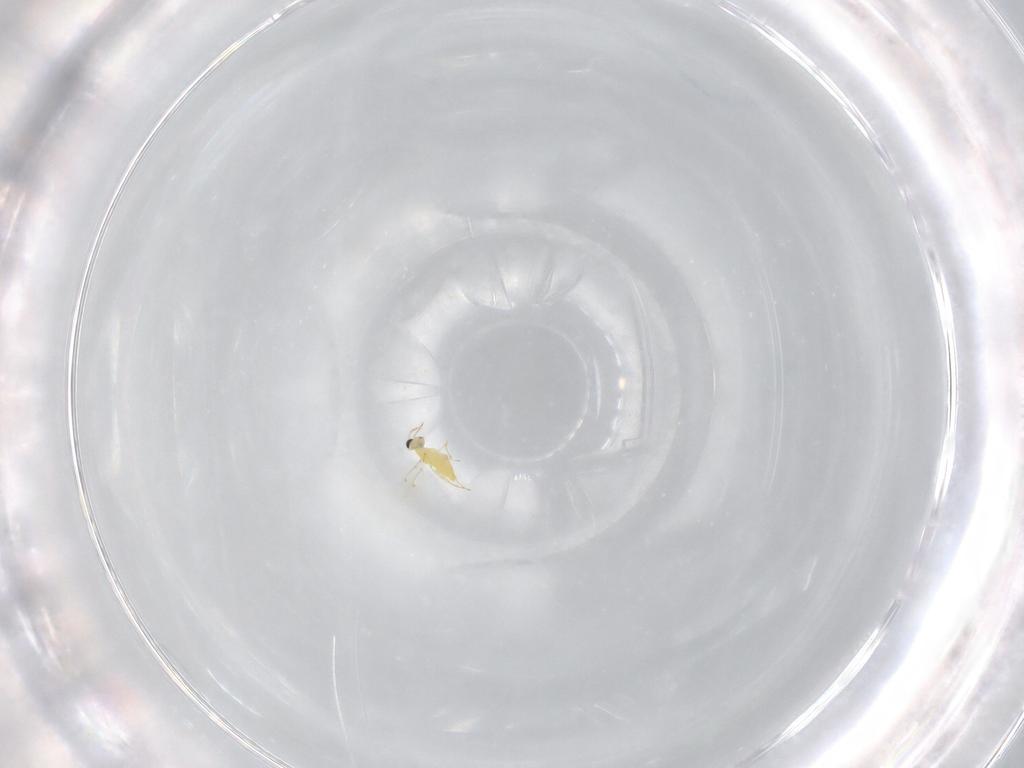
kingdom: Animalia
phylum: Arthropoda
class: Insecta
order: Hymenoptera
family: Trichogrammatidae
